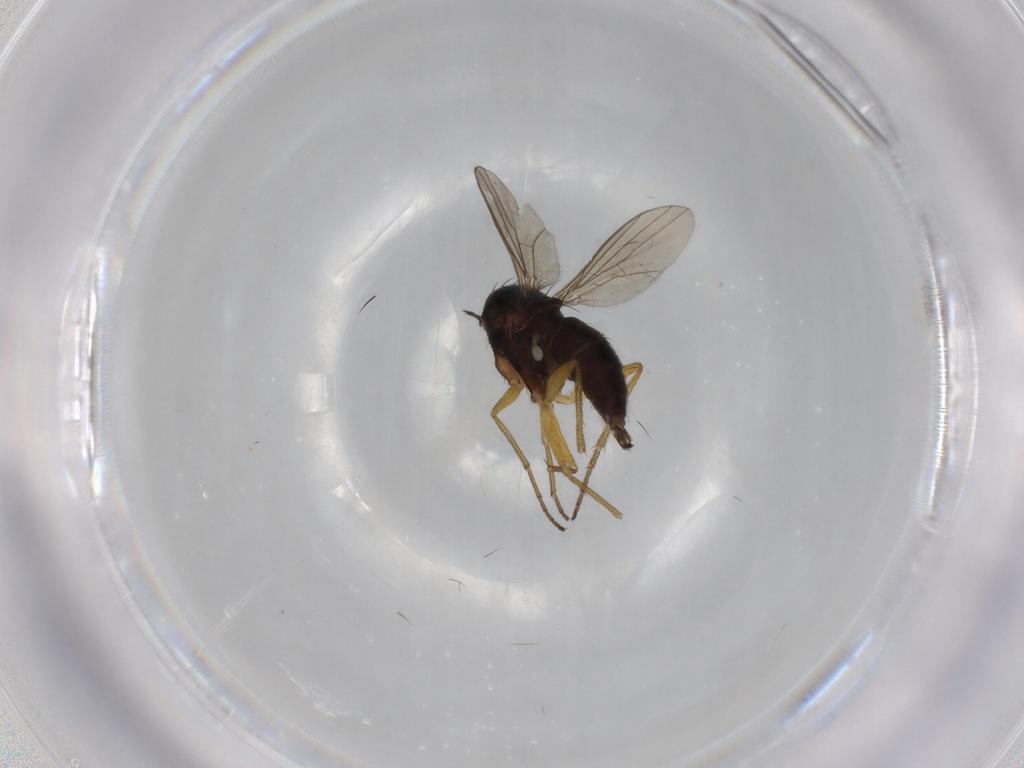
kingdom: Animalia
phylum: Arthropoda
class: Insecta
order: Diptera
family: Dolichopodidae
